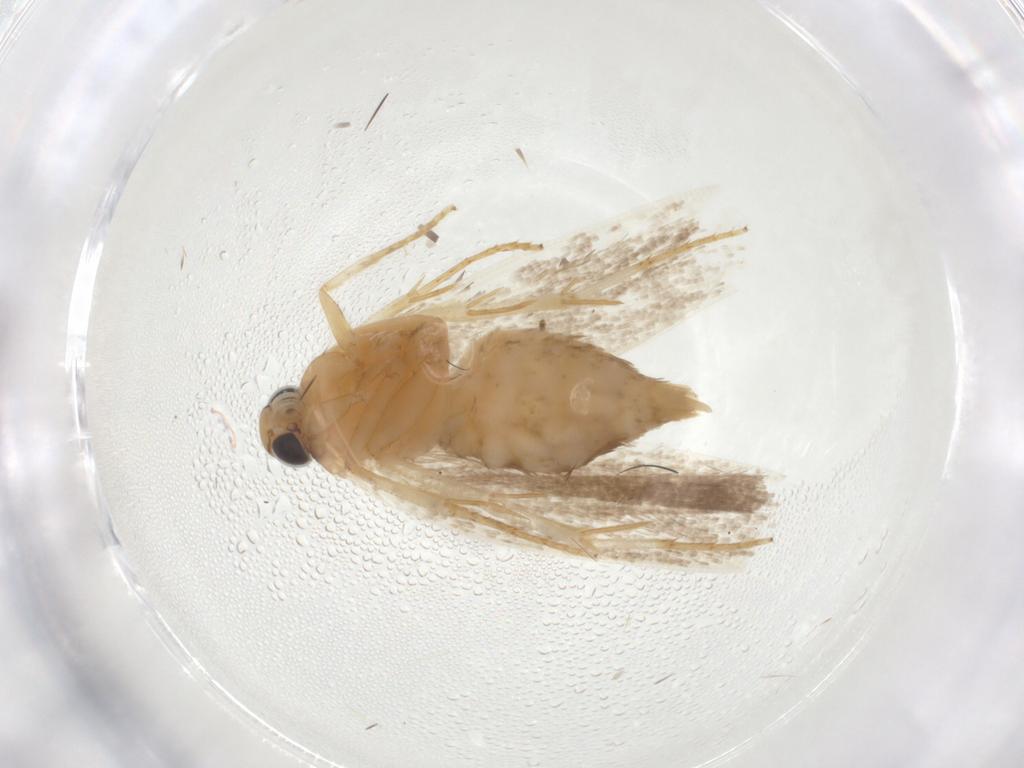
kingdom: Animalia
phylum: Arthropoda
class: Insecta
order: Lepidoptera
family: Gelechiidae
